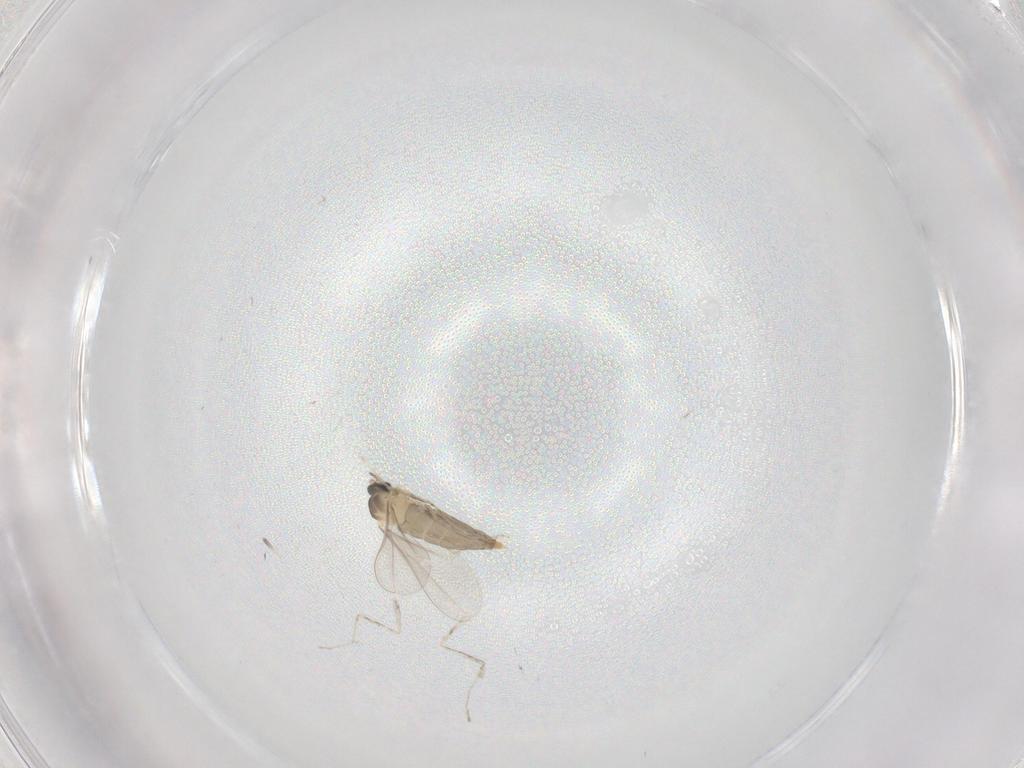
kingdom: Animalia
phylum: Arthropoda
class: Insecta
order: Diptera
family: Cecidomyiidae
